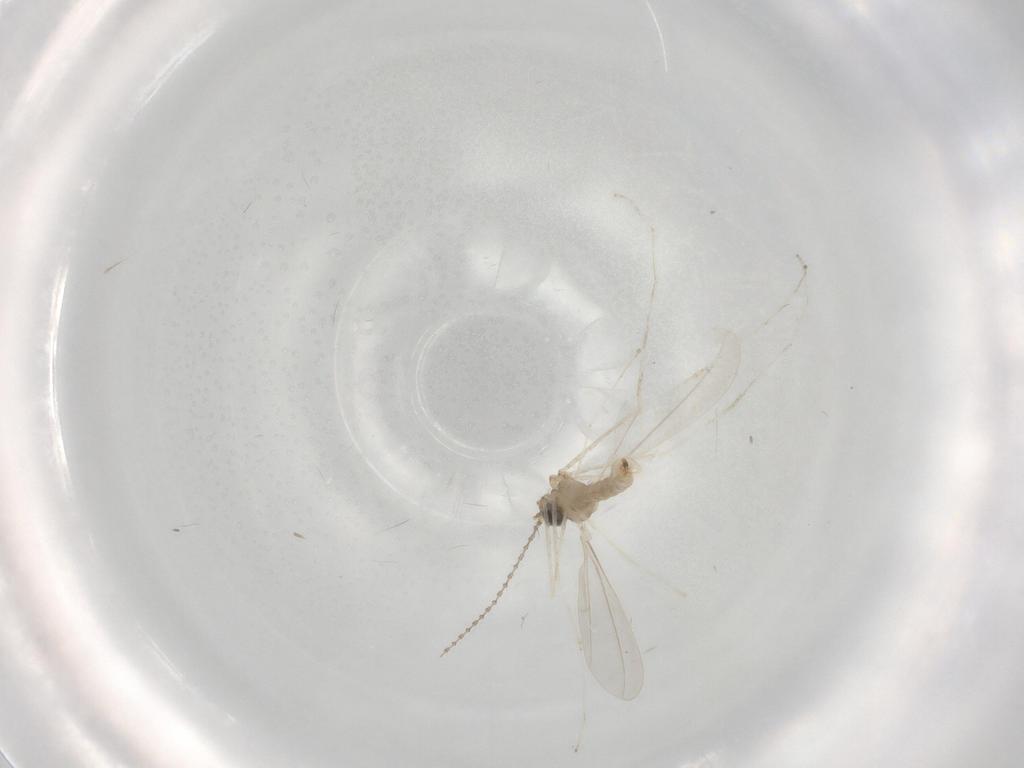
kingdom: Animalia
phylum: Arthropoda
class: Insecta
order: Diptera
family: Cecidomyiidae
